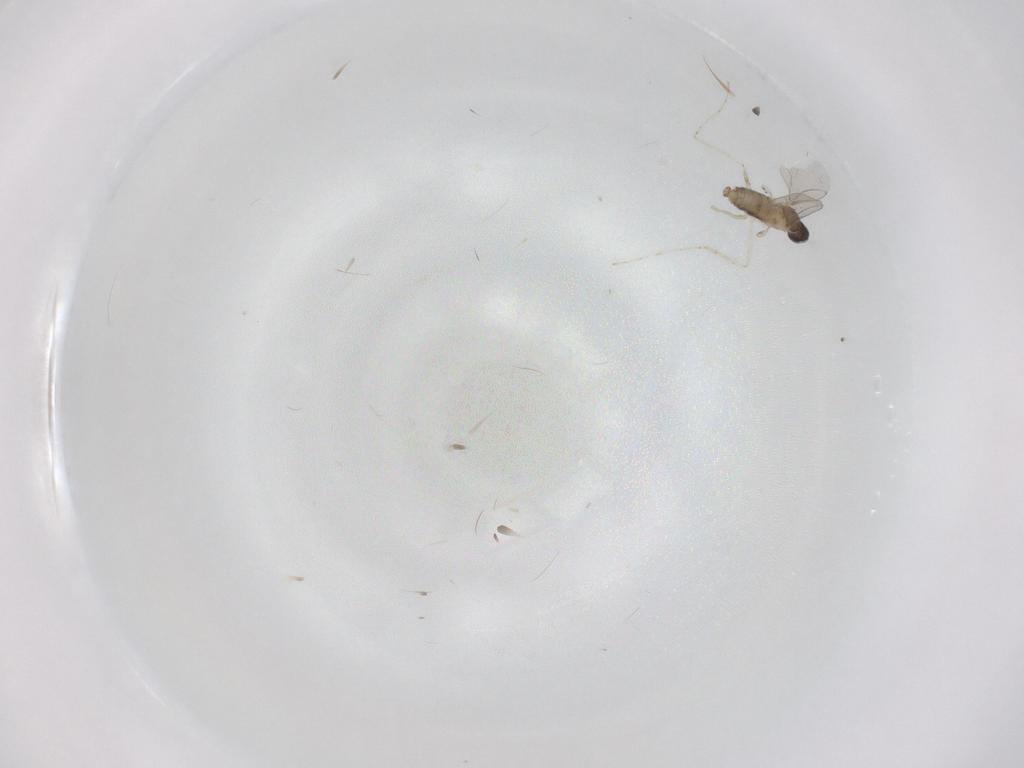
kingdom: Animalia
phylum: Arthropoda
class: Insecta
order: Diptera
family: Cecidomyiidae
